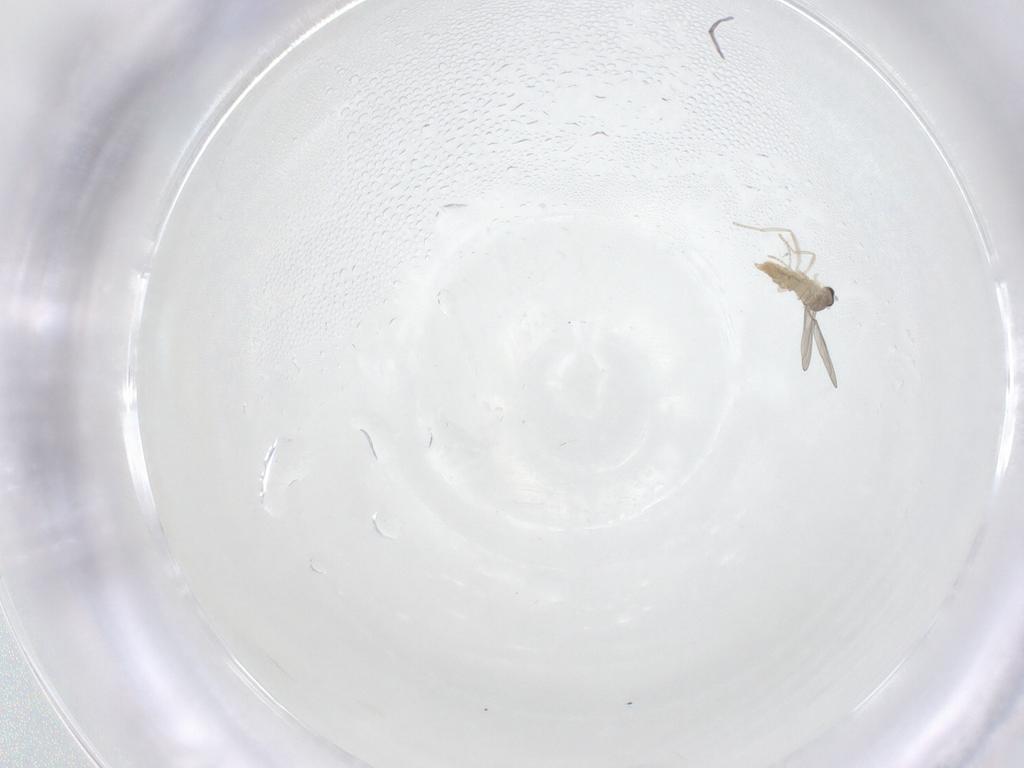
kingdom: Animalia
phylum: Arthropoda
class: Insecta
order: Diptera
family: Cecidomyiidae
